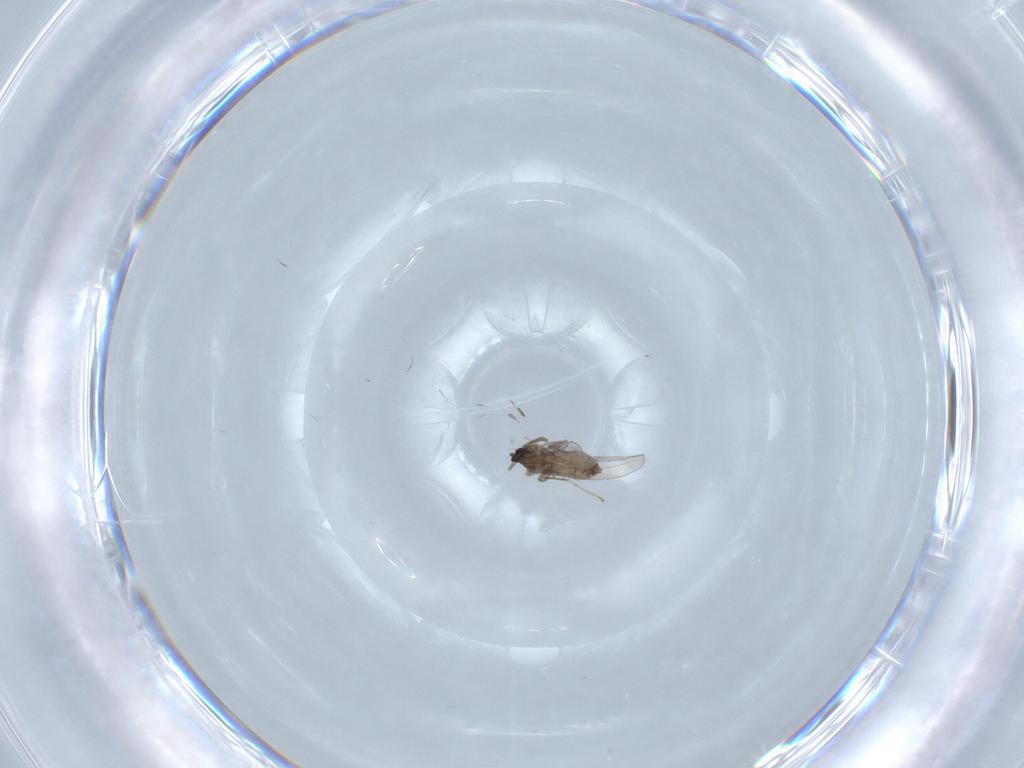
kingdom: Animalia
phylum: Arthropoda
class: Insecta
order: Diptera
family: Cecidomyiidae
